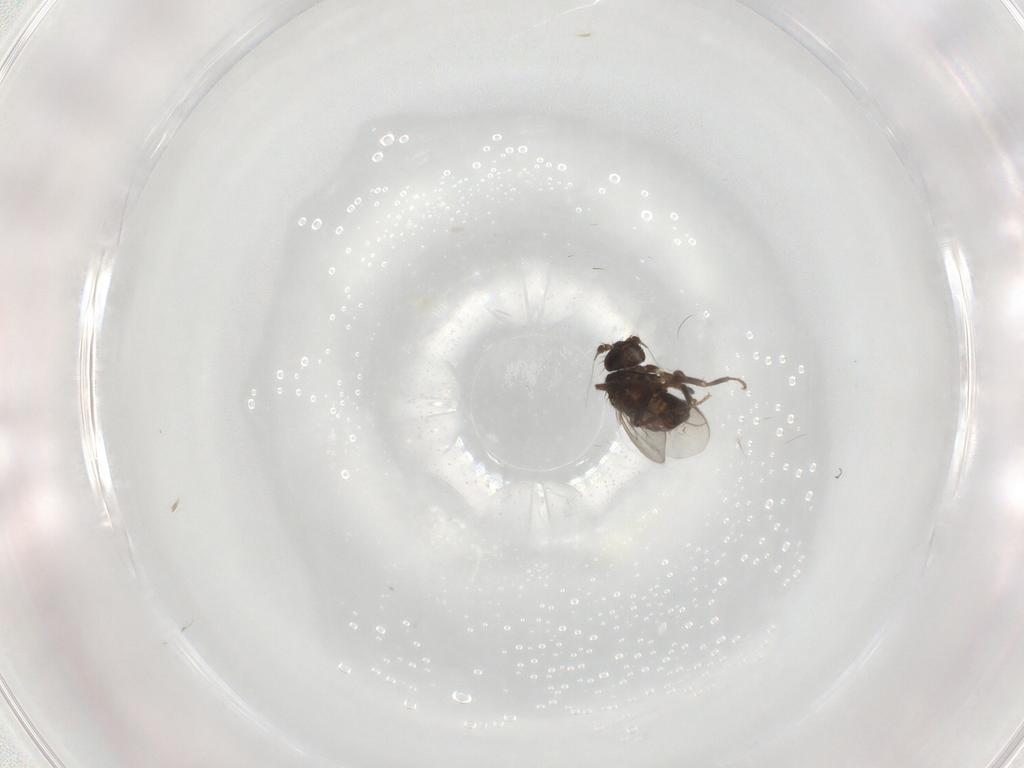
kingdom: Animalia
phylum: Arthropoda
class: Insecta
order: Diptera
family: Sphaeroceridae
